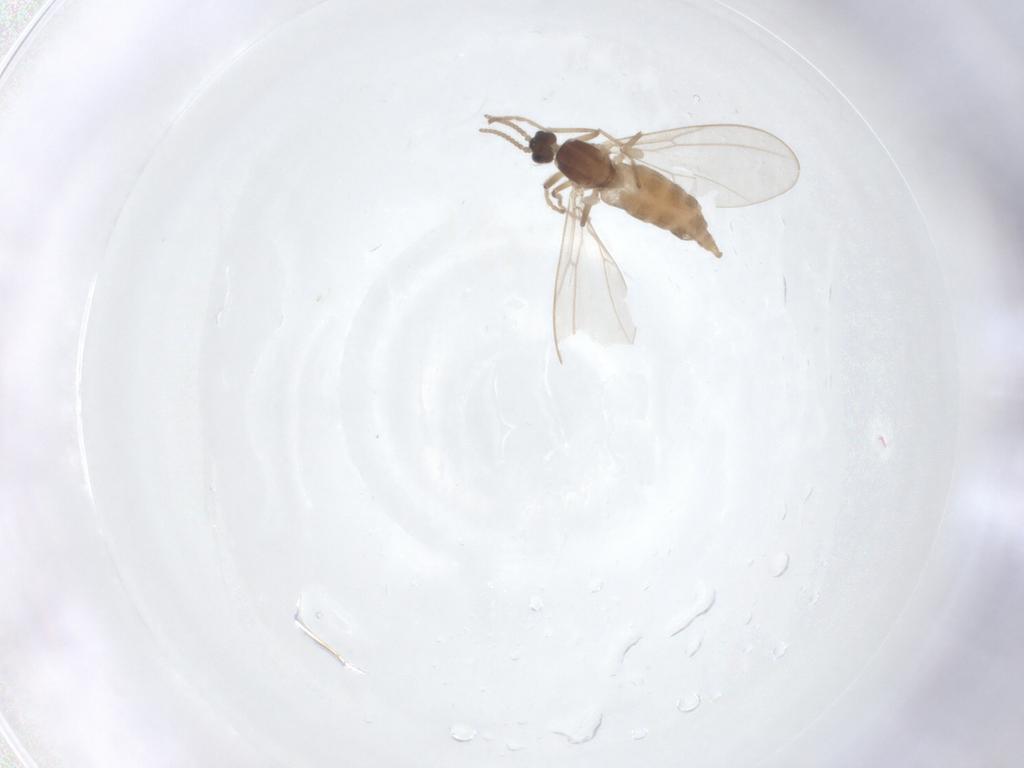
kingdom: Animalia
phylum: Arthropoda
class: Insecta
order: Diptera
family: Cecidomyiidae
